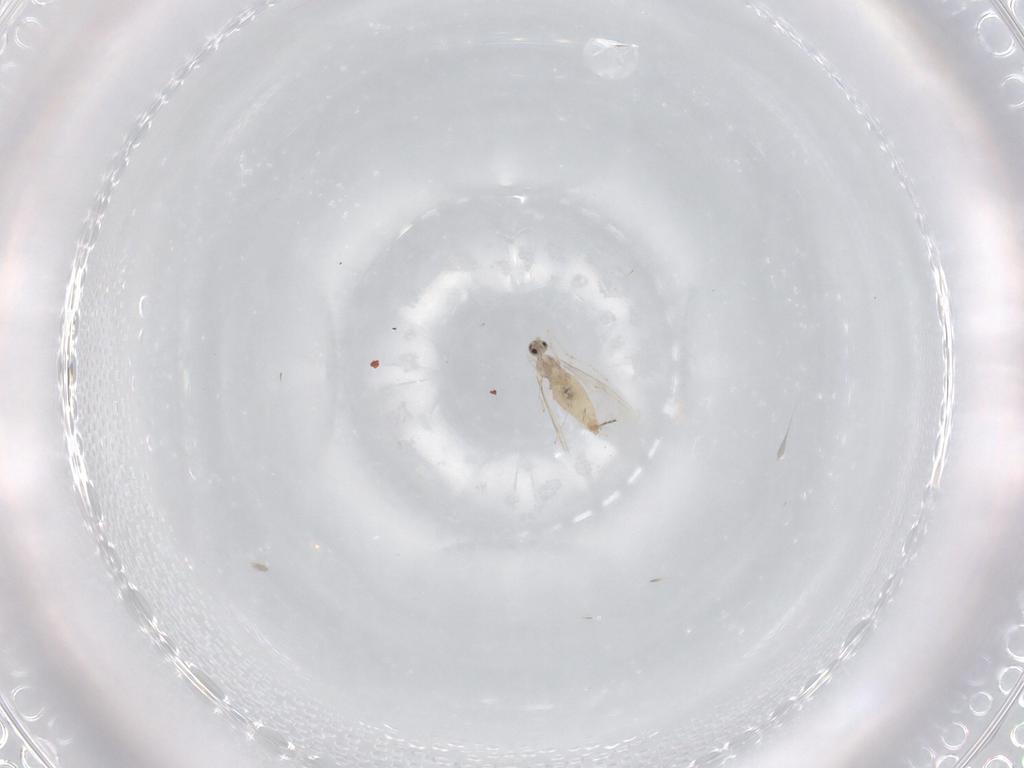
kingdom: Animalia
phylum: Arthropoda
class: Insecta
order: Diptera
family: Cecidomyiidae
